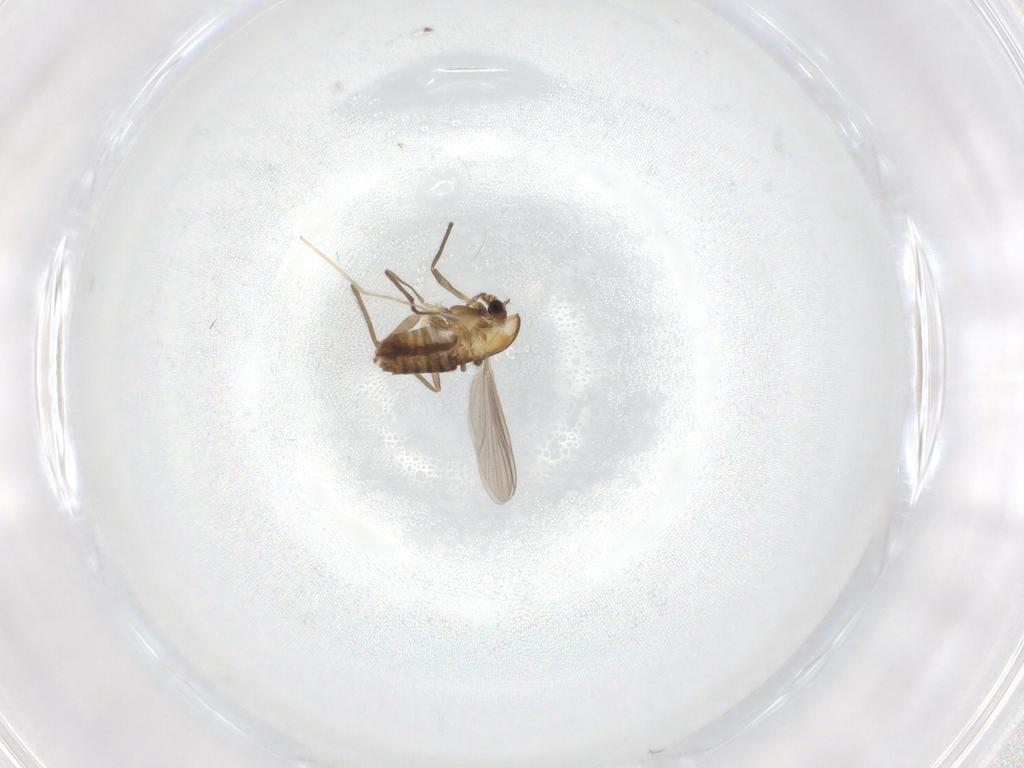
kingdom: Animalia
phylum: Arthropoda
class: Insecta
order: Diptera
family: Chironomidae
